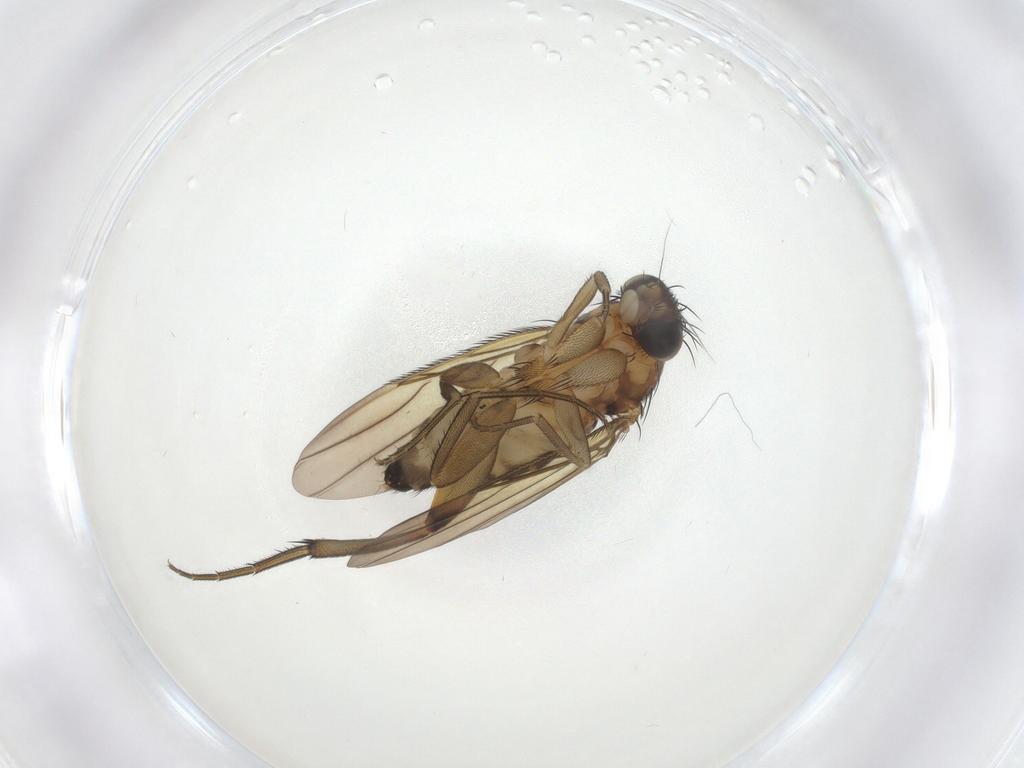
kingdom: Animalia
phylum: Arthropoda
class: Insecta
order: Diptera
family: Phoridae
